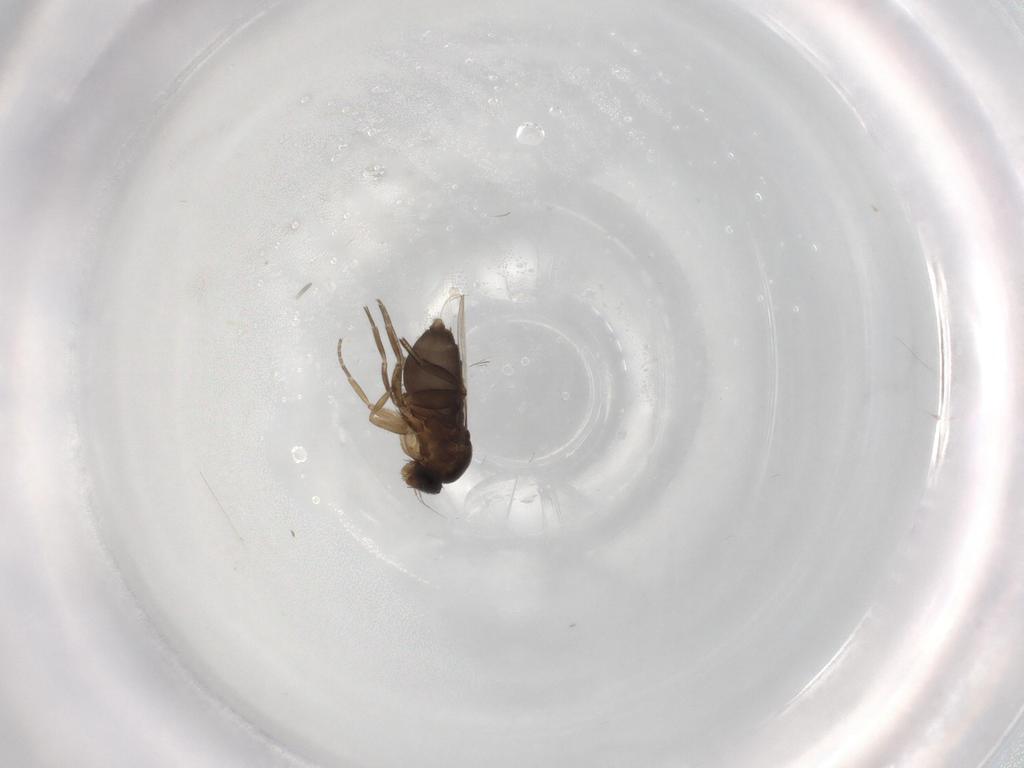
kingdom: Animalia
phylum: Arthropoda
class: Insecta
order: Diptera
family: Phoridae
